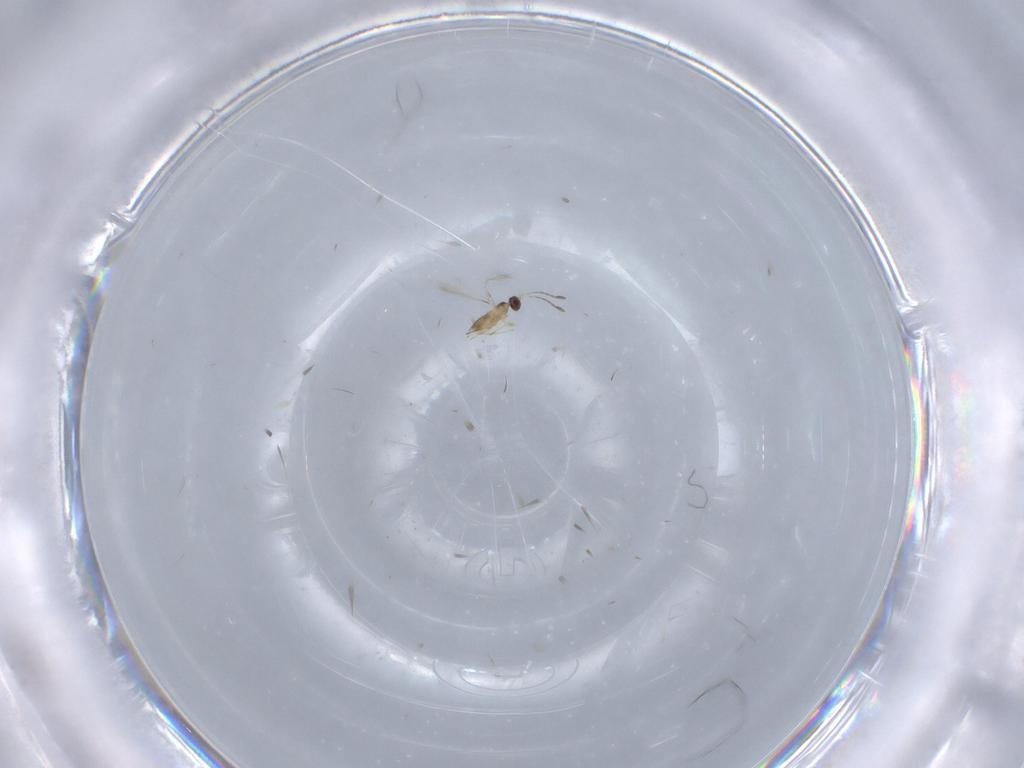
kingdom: Animalia
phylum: Arthropoda
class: Insecta
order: Hymenoptera
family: Mymaridae
